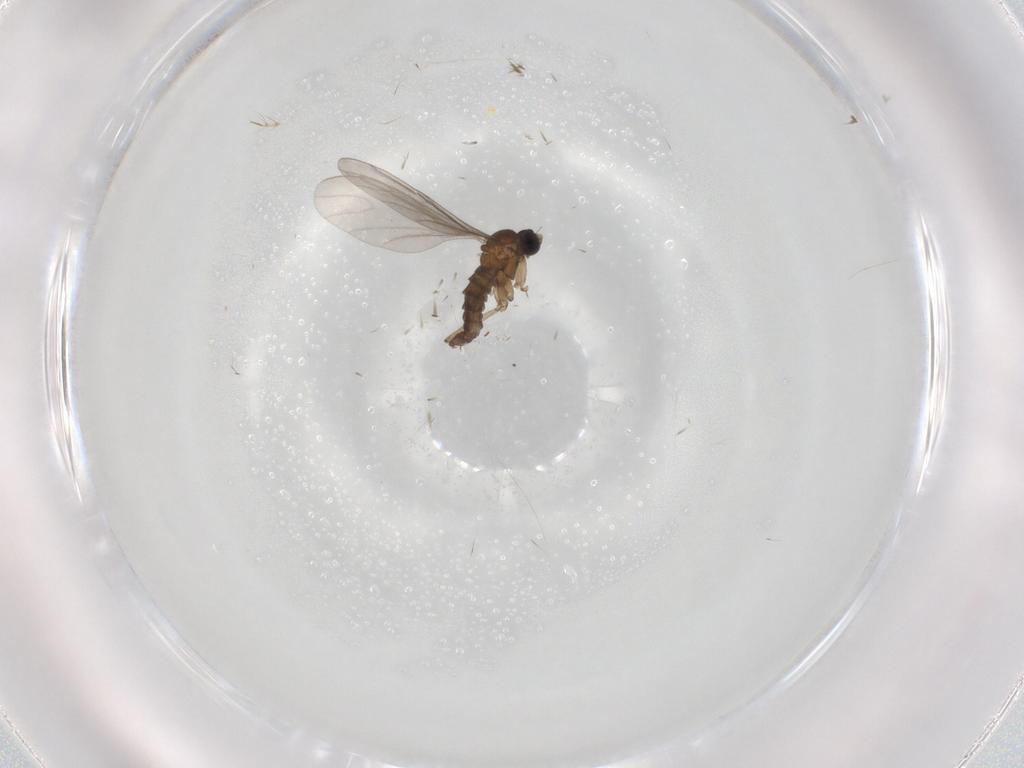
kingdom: Animalia
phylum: Arthropoda
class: Insecta
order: Diptera
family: Sciaridae
